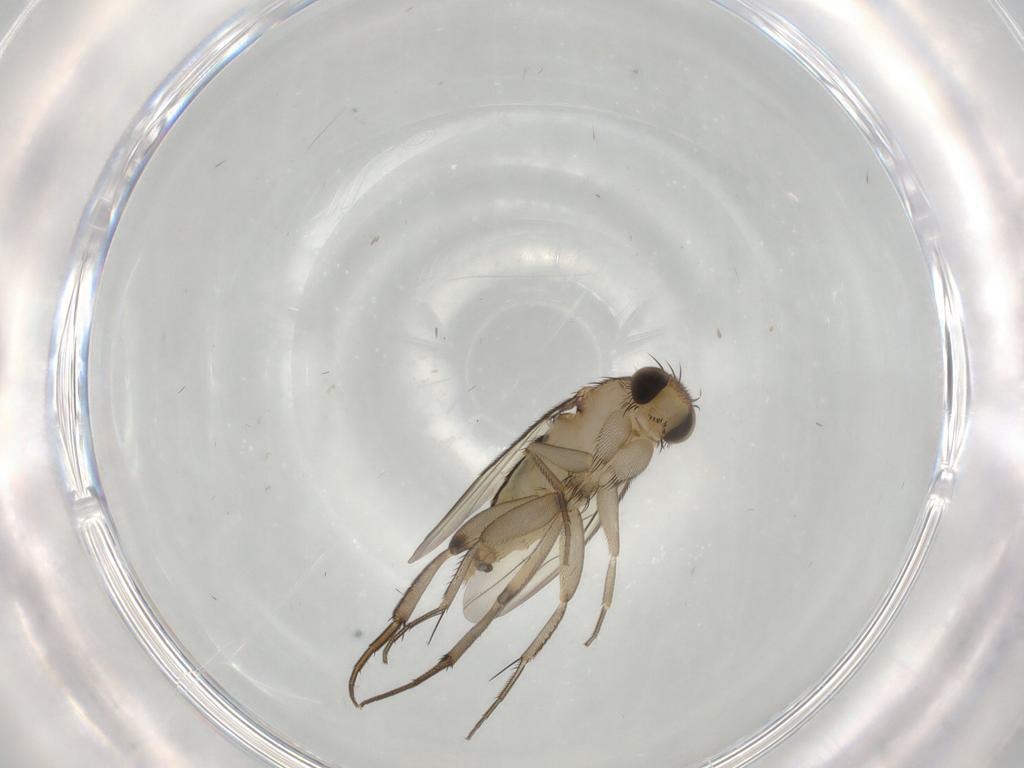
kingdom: Animalia
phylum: Arthropoda
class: Insecta
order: Diptera
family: Phoridae
